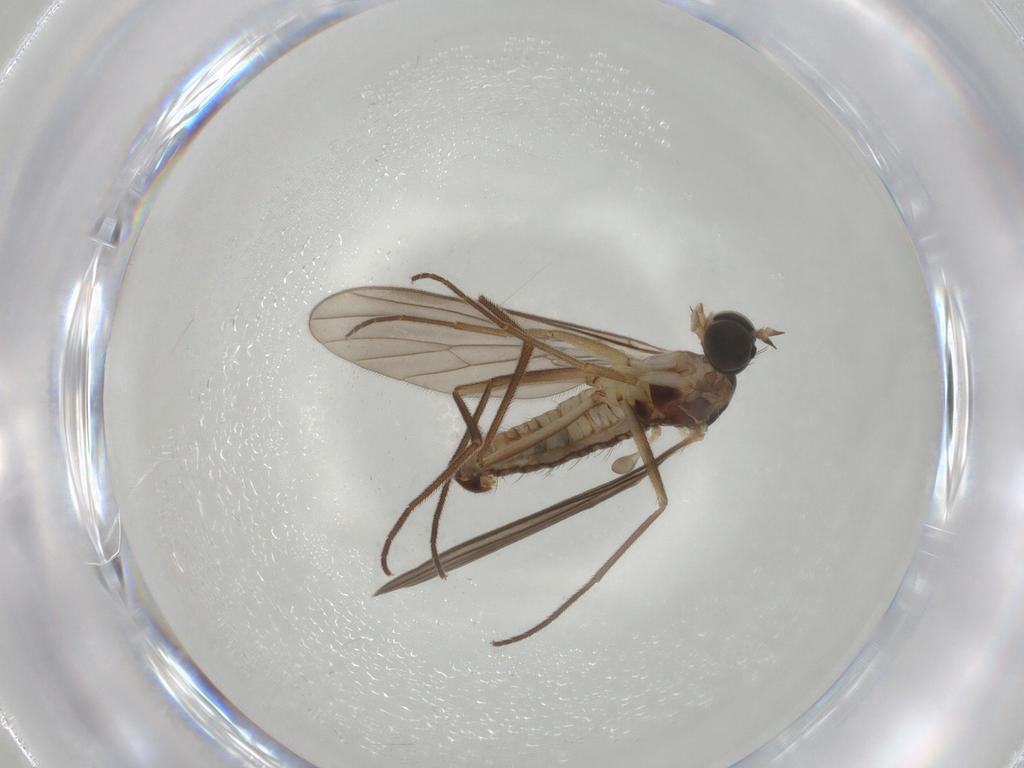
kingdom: Animalia
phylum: Arthropoda
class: Insecta
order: Diptera
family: Empididae
